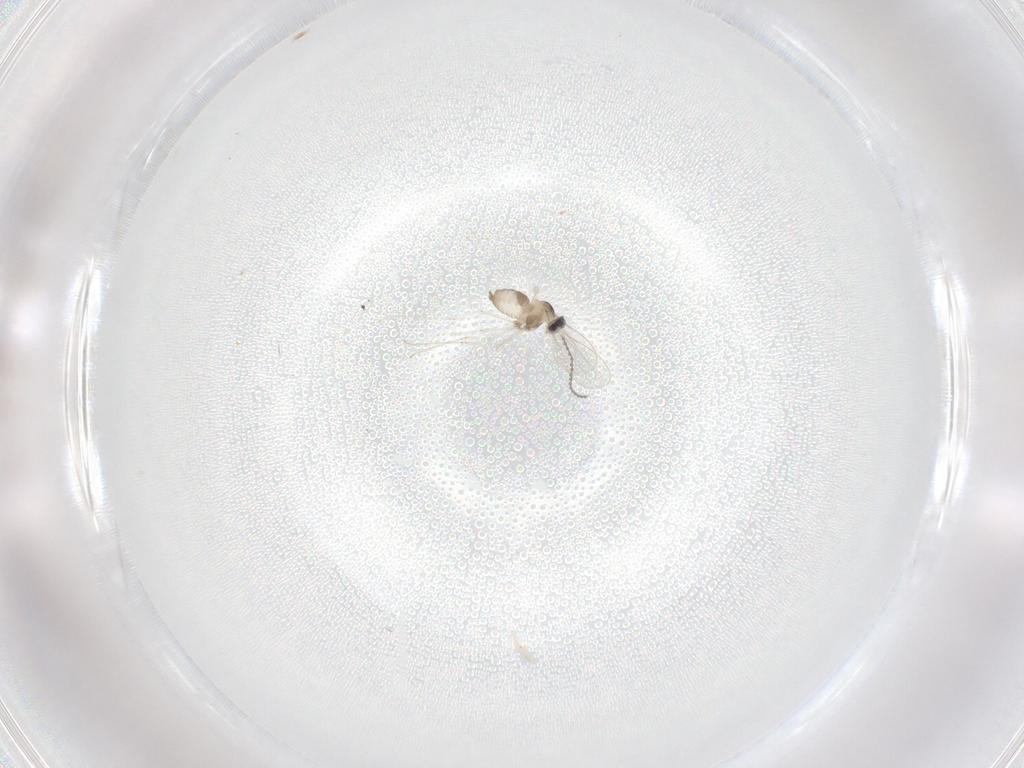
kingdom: Animalia
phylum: Arthropoda
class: Insecta
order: Diptera
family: Cecidomyiidae
